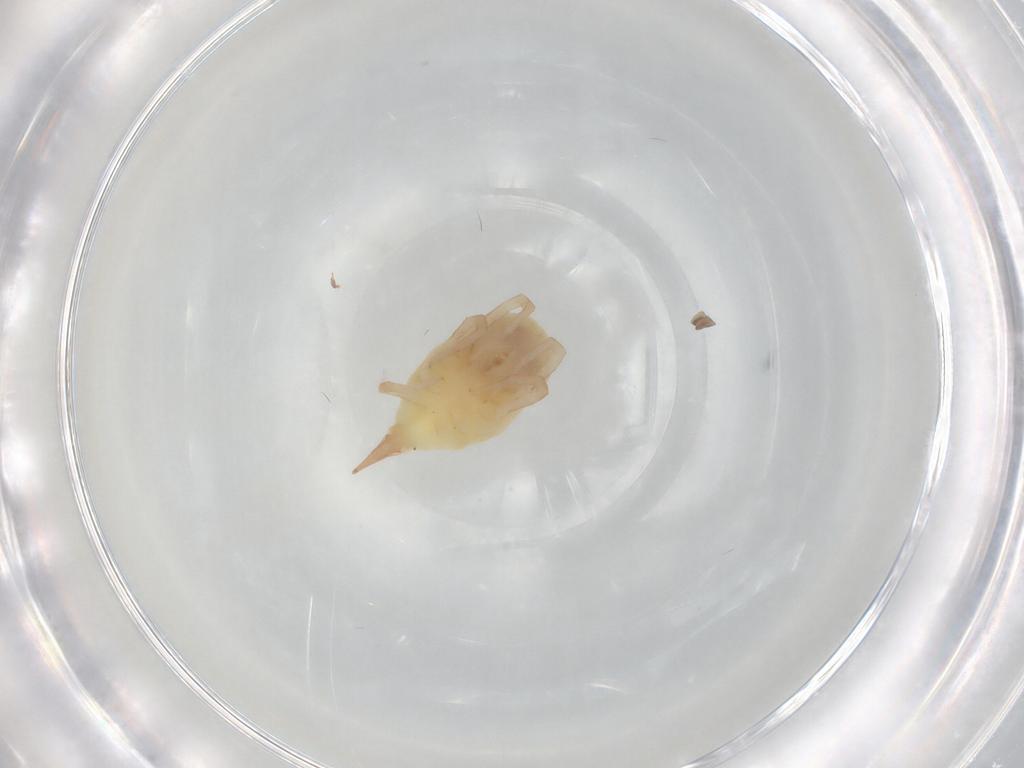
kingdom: Animalia
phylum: Arthropoda
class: Arachnida
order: Trombidiformes
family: Bdellidae
